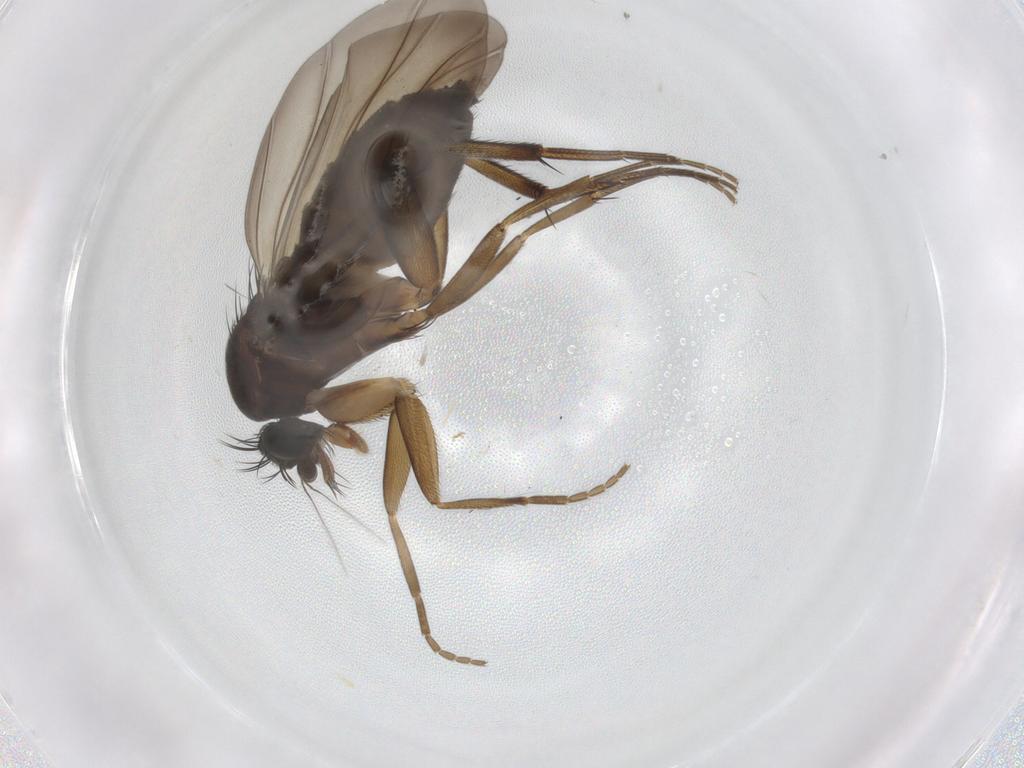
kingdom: Animalia
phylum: Arthropoda
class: Insecta
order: Diptera
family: Phoridae
